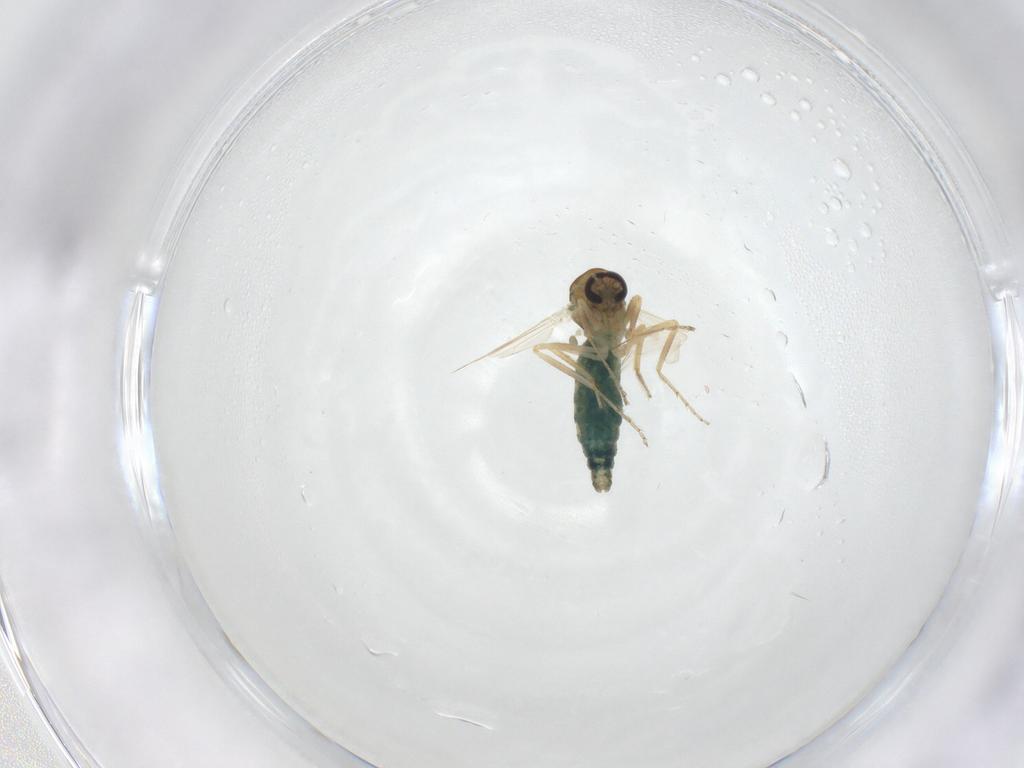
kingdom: Animalia
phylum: Arthropoda
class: Insecta
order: Diptera
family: Ceratopogonidae
